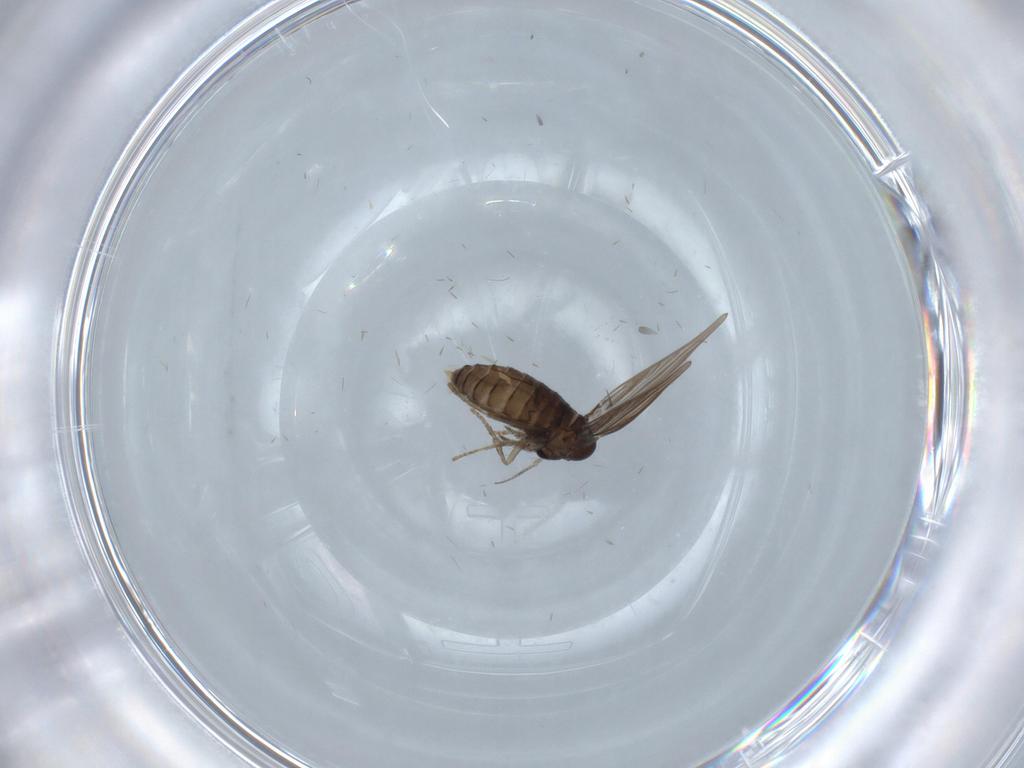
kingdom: Animalia
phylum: Arthropoda
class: Insecta
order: Diptera
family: Psychodidae
